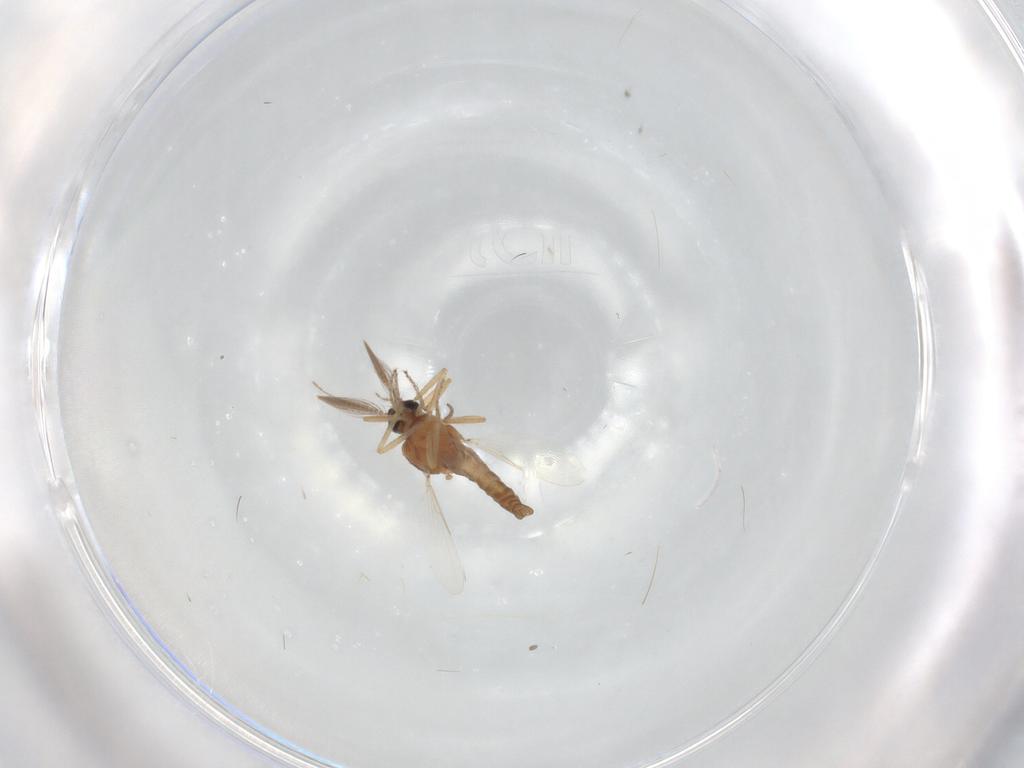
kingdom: Animalia
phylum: Arthropoda
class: Insecta
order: Diptera
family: Ceratopogonidae
